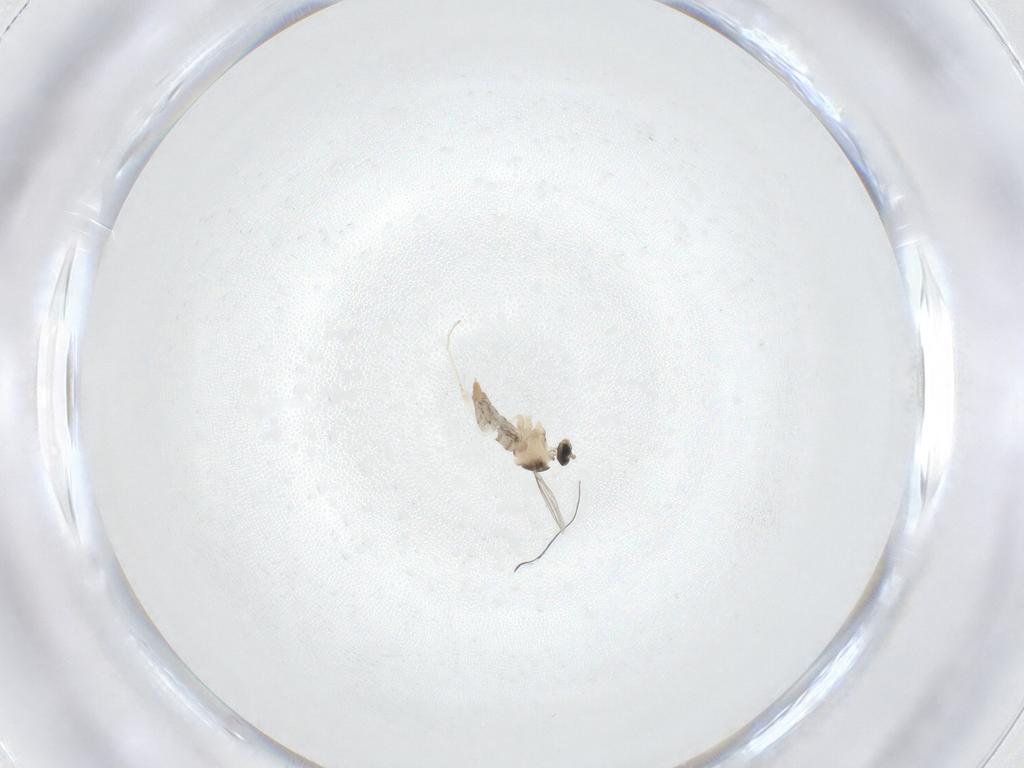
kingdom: Animalia
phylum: Arthropoda
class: Insecta
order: Diptera
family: Cecidomyiidae
